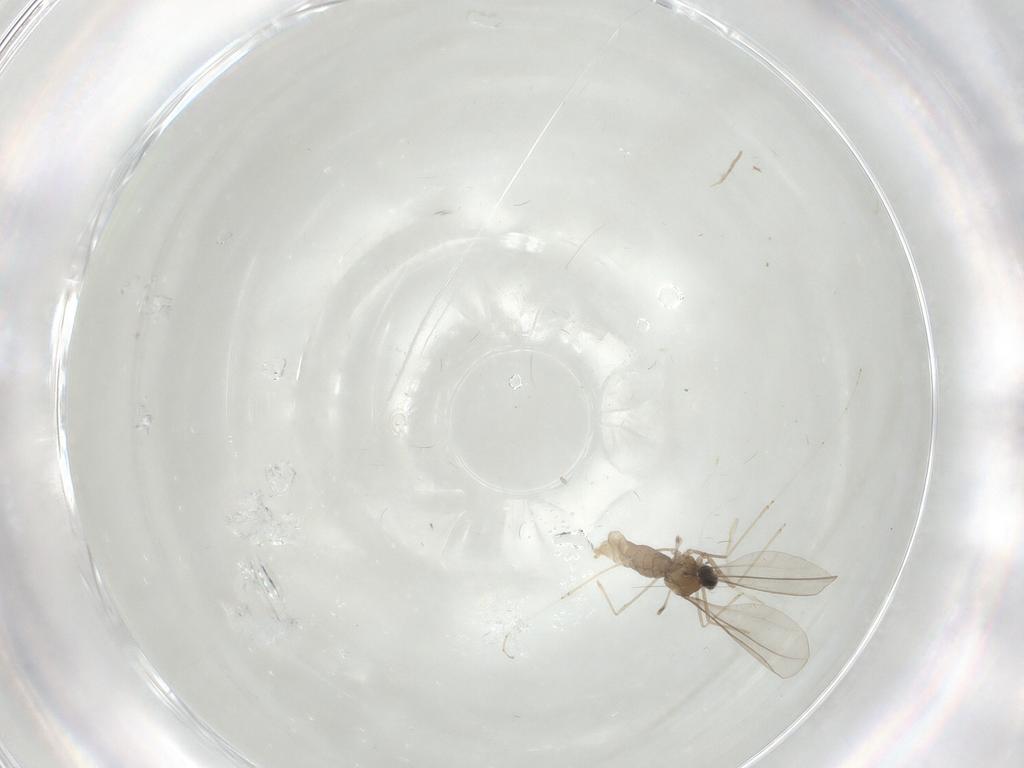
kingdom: Animalia
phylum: Arthropoda
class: Insecta
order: Diptera
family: Cecidomyiidae
